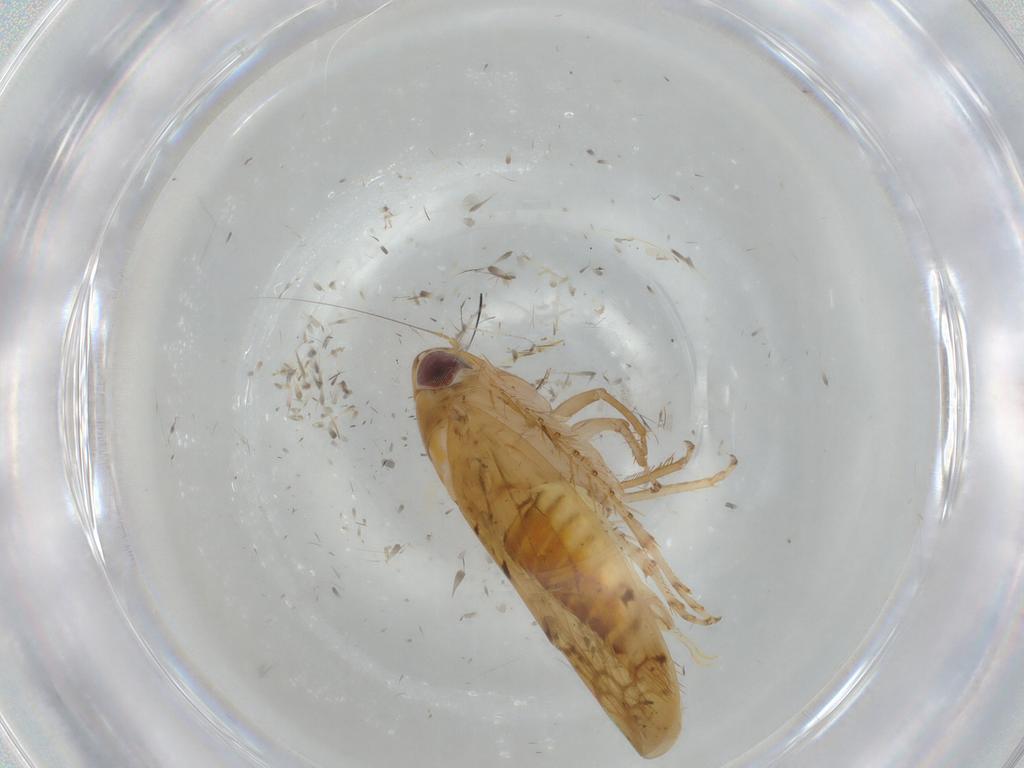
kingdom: Animalia
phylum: Arthropoda
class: Insecta
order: Hemiptera
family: Cicadellidae
